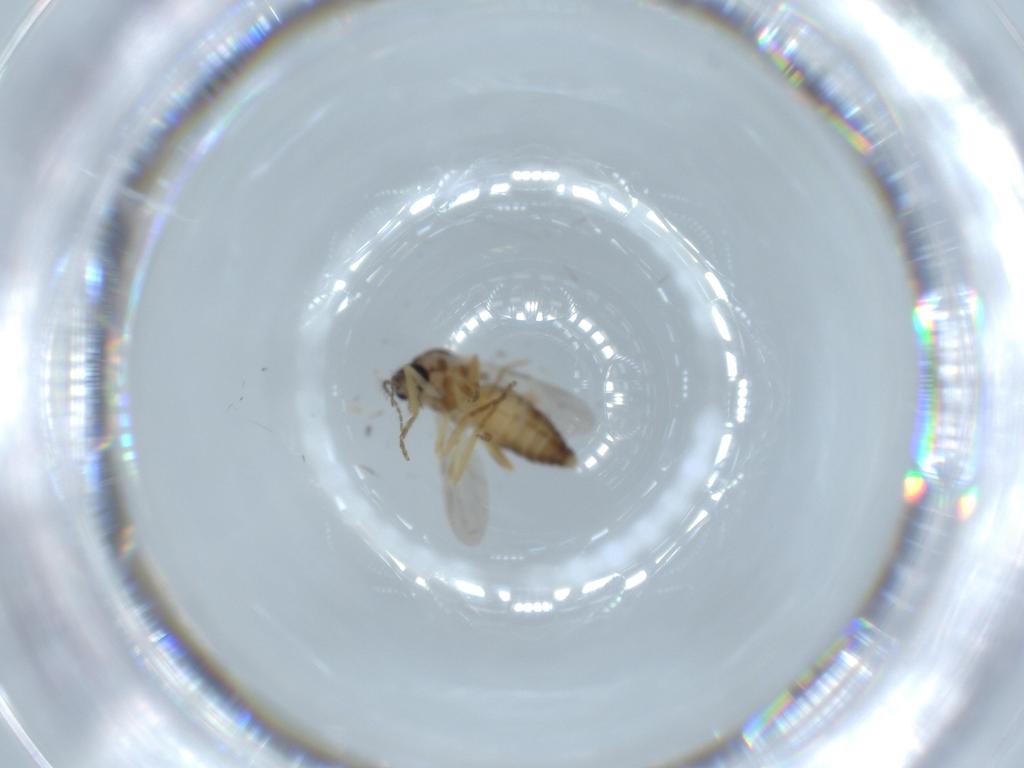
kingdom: Animalia
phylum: Arthropoda
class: Insecta
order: Diptera
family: Ceratopogonidae
